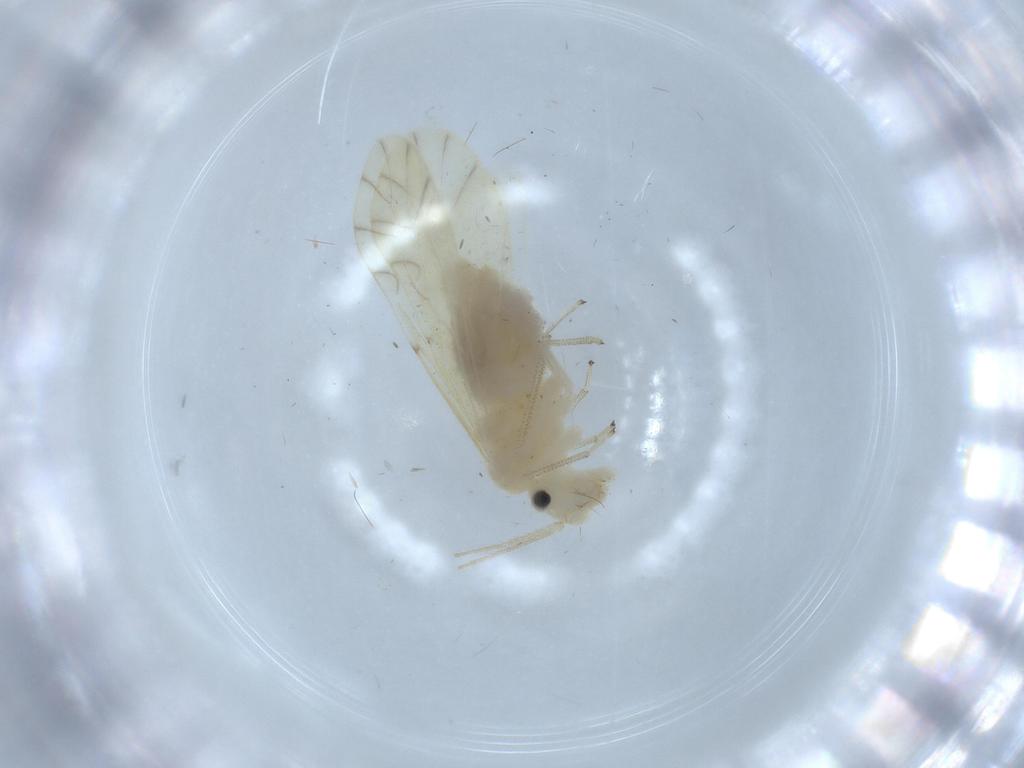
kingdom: Animalia
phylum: Arthropoda
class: Insecta
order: Psocodea
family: Caeciliusidae
